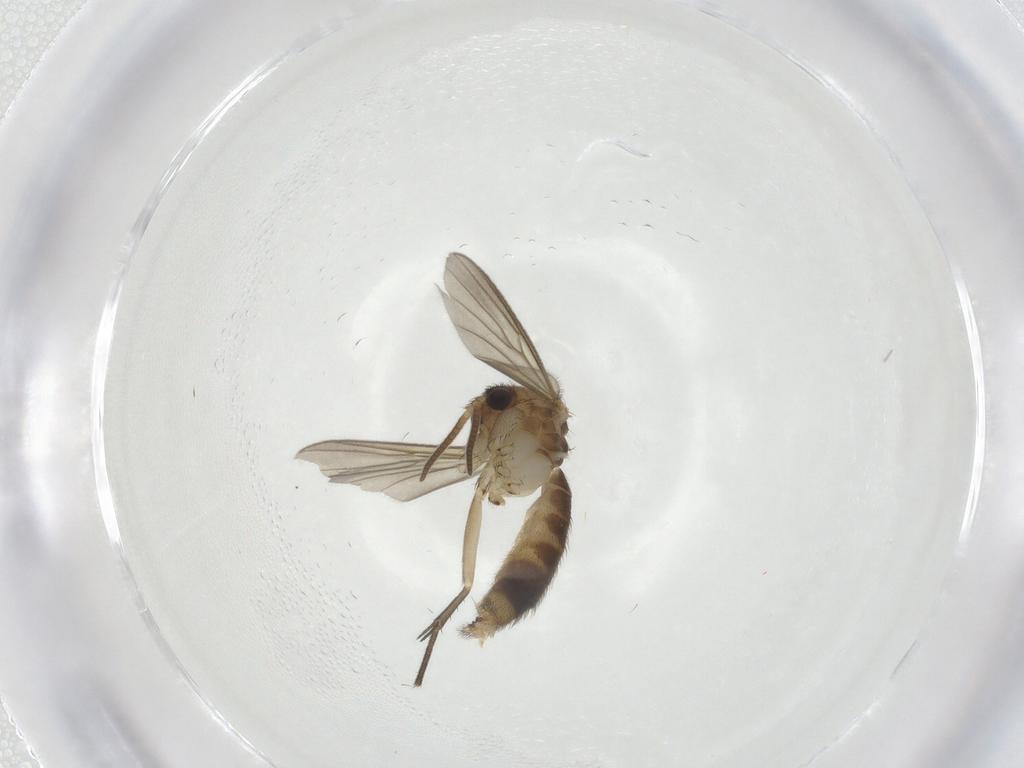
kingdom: Animalia
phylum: Arthropoda
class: Insecta
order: Diptera
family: Mycetophilidae
